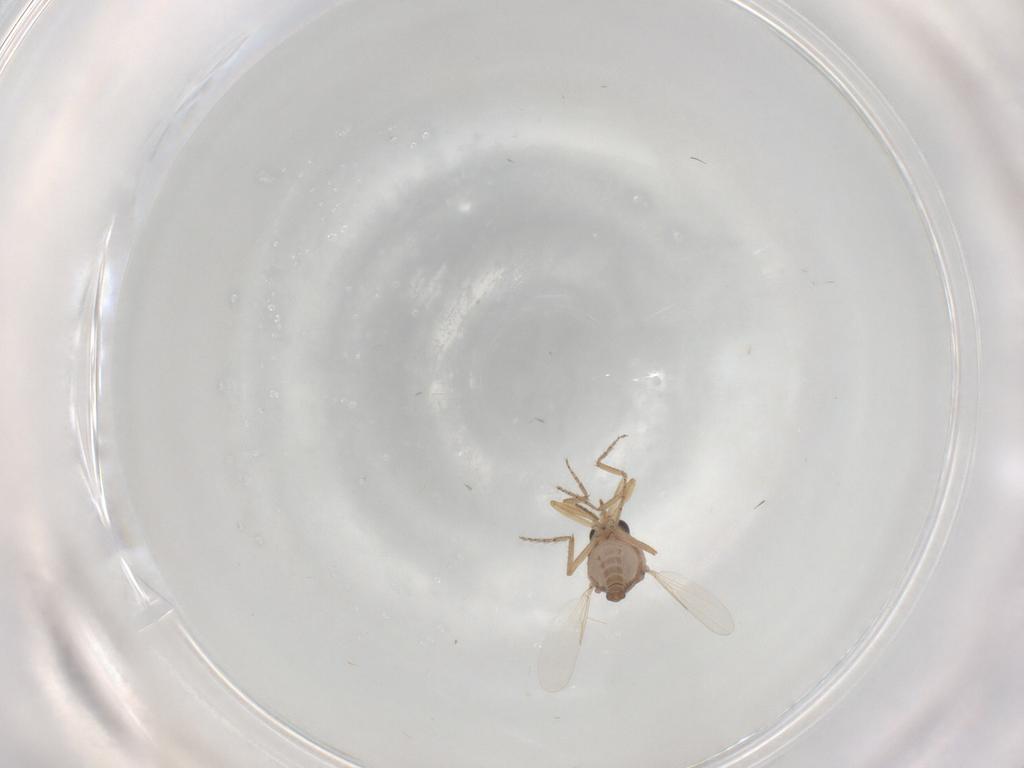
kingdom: Animalia
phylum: Arthropoda
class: Insecta
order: Diptera
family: Ceratopogonidae
